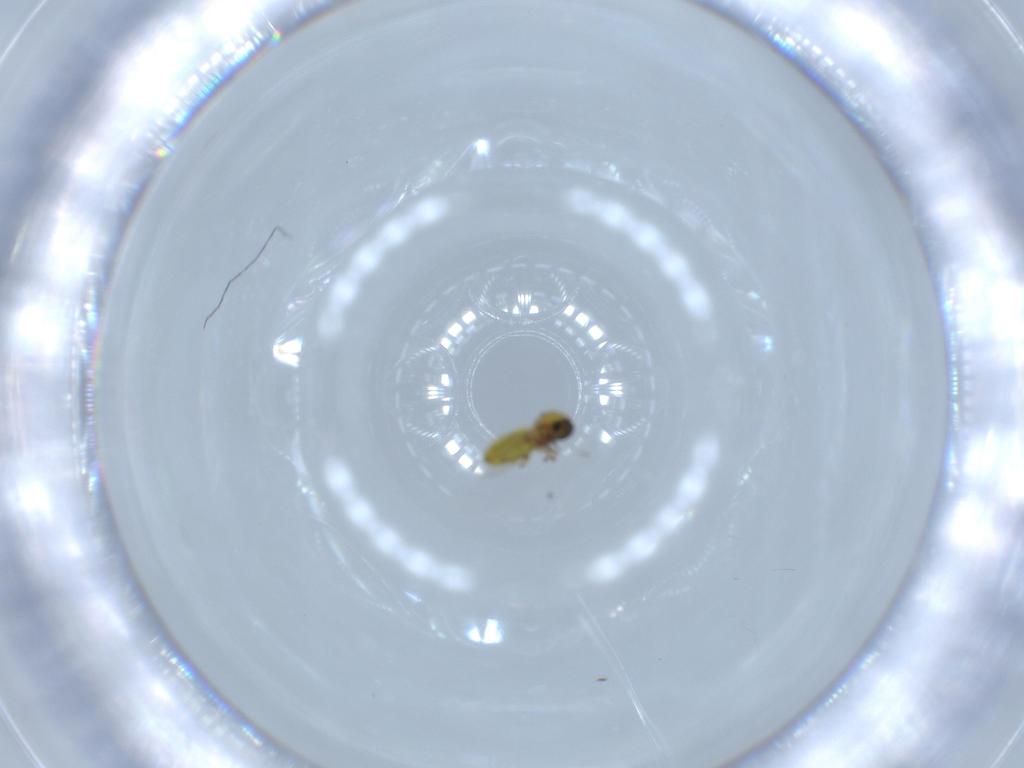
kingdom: Animalia
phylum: Arthropoda
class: Insecta
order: Diptera
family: Ceratopogonidae
